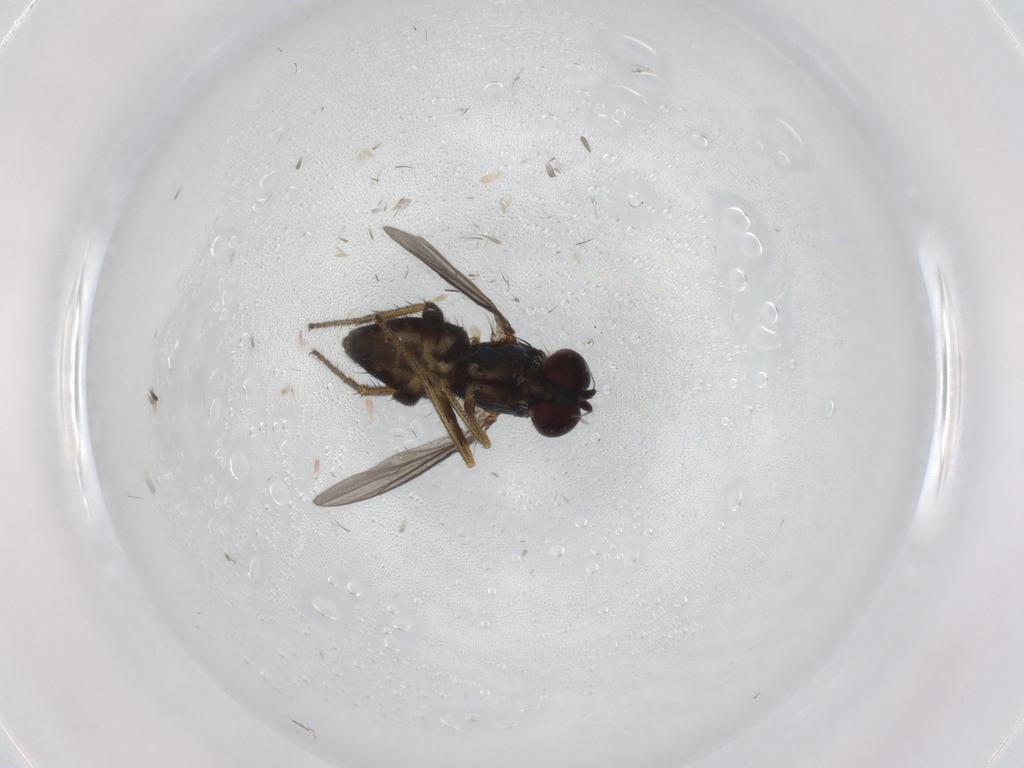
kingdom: Animalia
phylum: Arthropoda
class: Insecta
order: Diptera
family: Dolichopodidae
